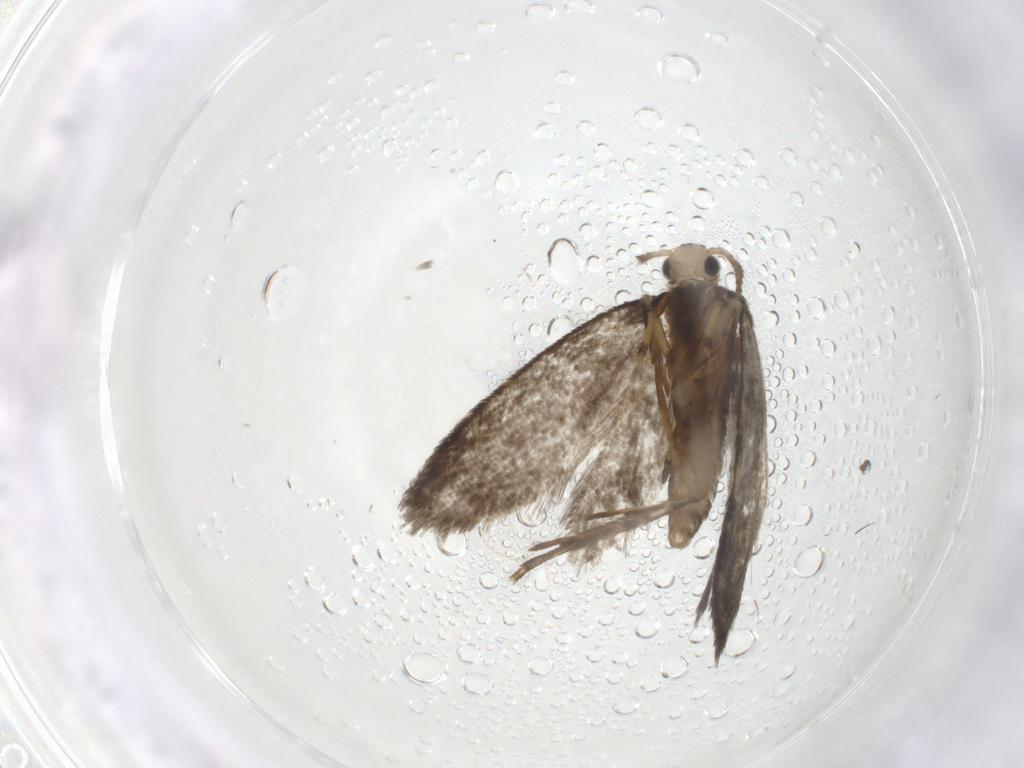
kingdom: Animalia
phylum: Arthropoda
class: Insecta
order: Lepidoptera
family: Psychidae
